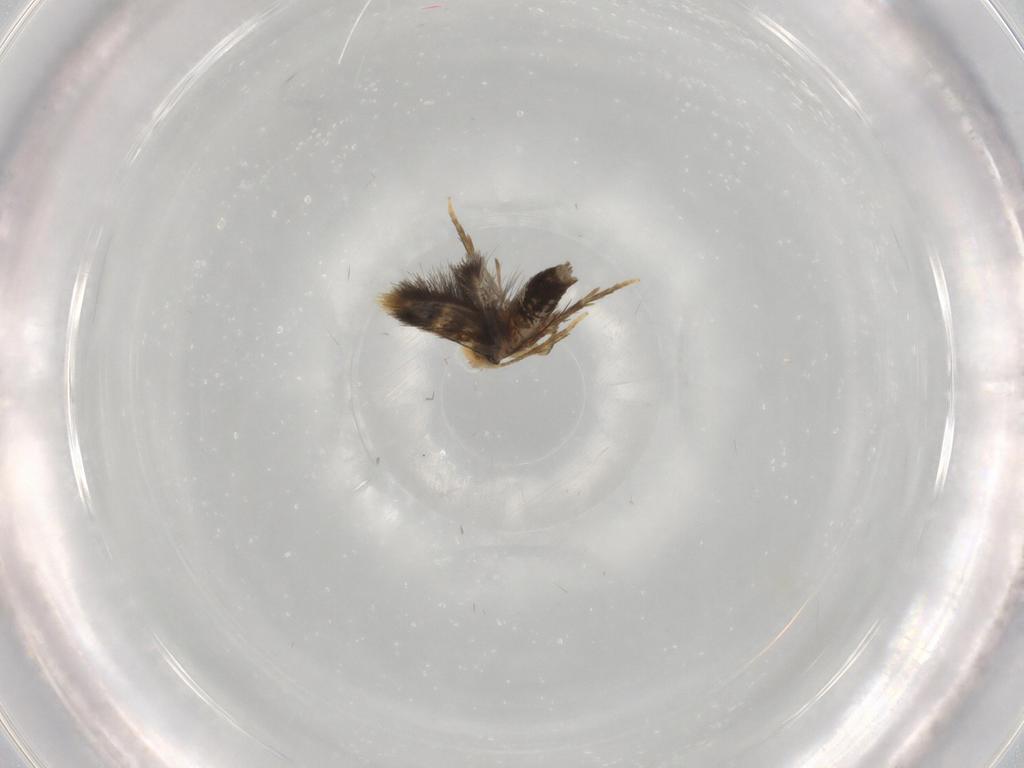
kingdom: Animalia
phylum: Arthropoda
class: Insecta
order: Lepidoptera
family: Copromorphidae
